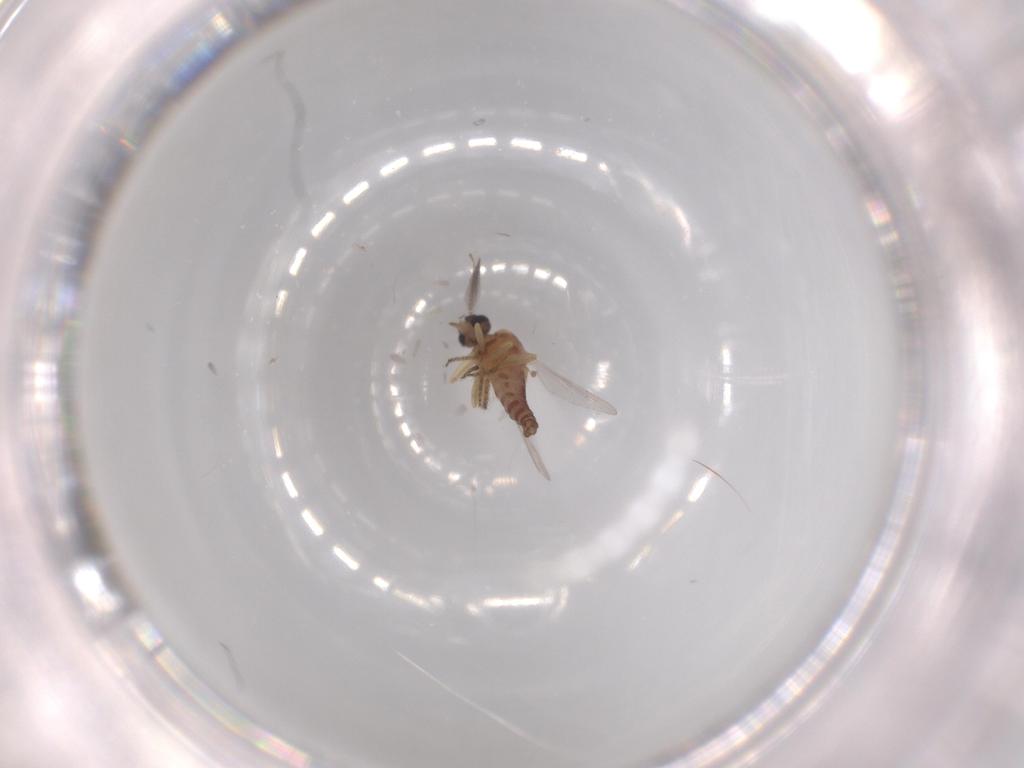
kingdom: Animalia
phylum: Arthropoda
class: Insecta
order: Diptera
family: Ceratopogonidae
